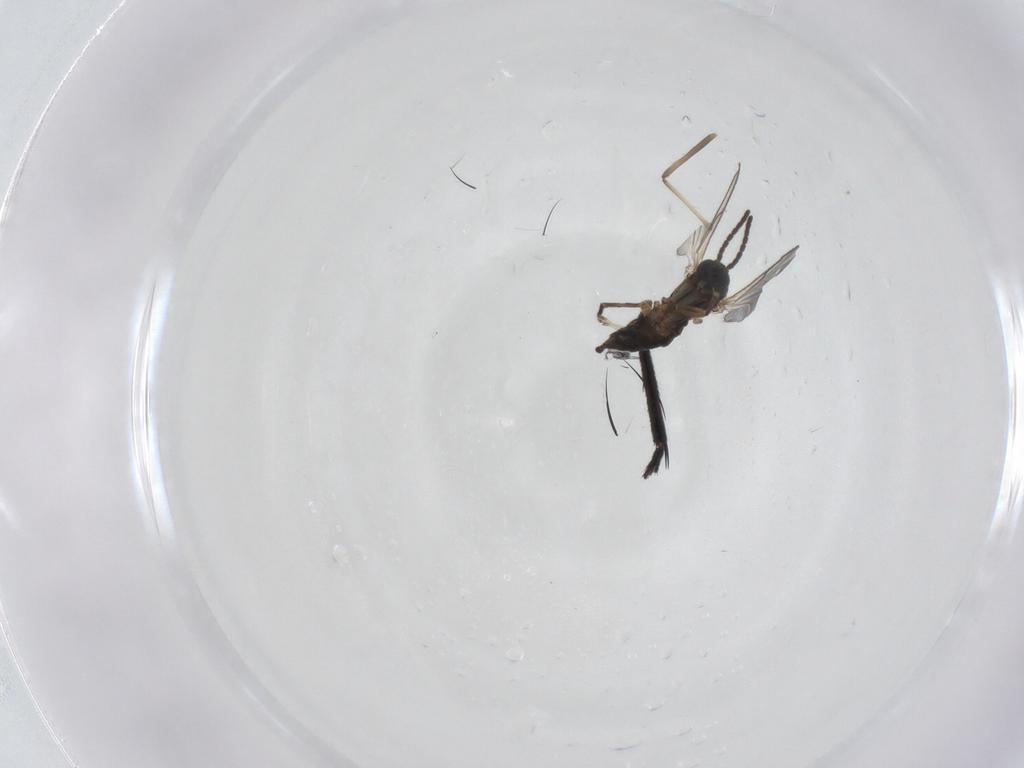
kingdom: Animalia
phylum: Arthropoda
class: Insecta
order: Diptera
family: Sciaridae
